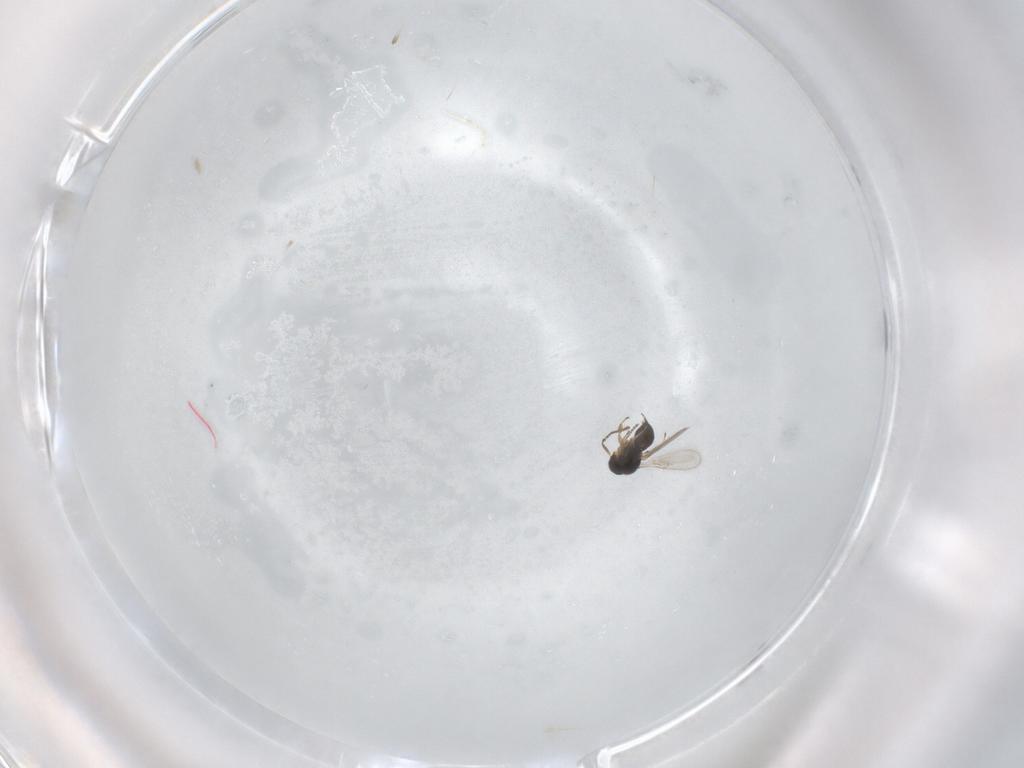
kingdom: Animalia
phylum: Arthropoda
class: Insecta
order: Hymenoptera
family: Scelionidae
